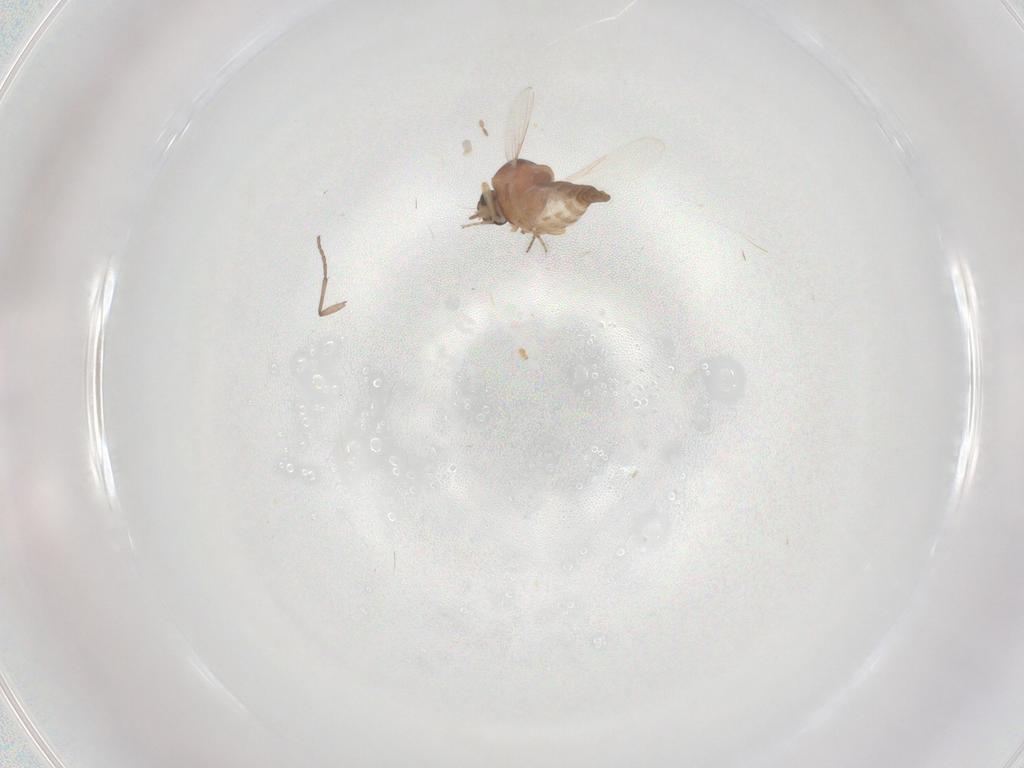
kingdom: Animalia
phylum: Arthropoda
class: Insecta
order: Diptera
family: Ceratopogonidae
